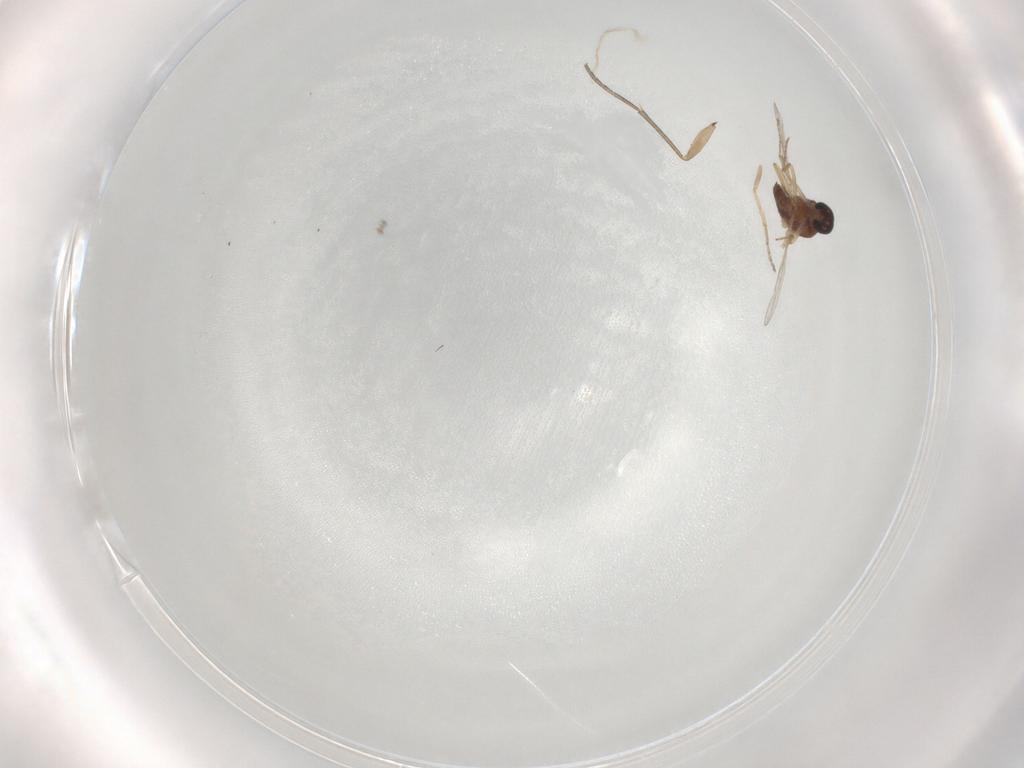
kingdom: Animalia
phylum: Arthropoda
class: Insecta
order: Diptera
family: Ceratopogonidae
